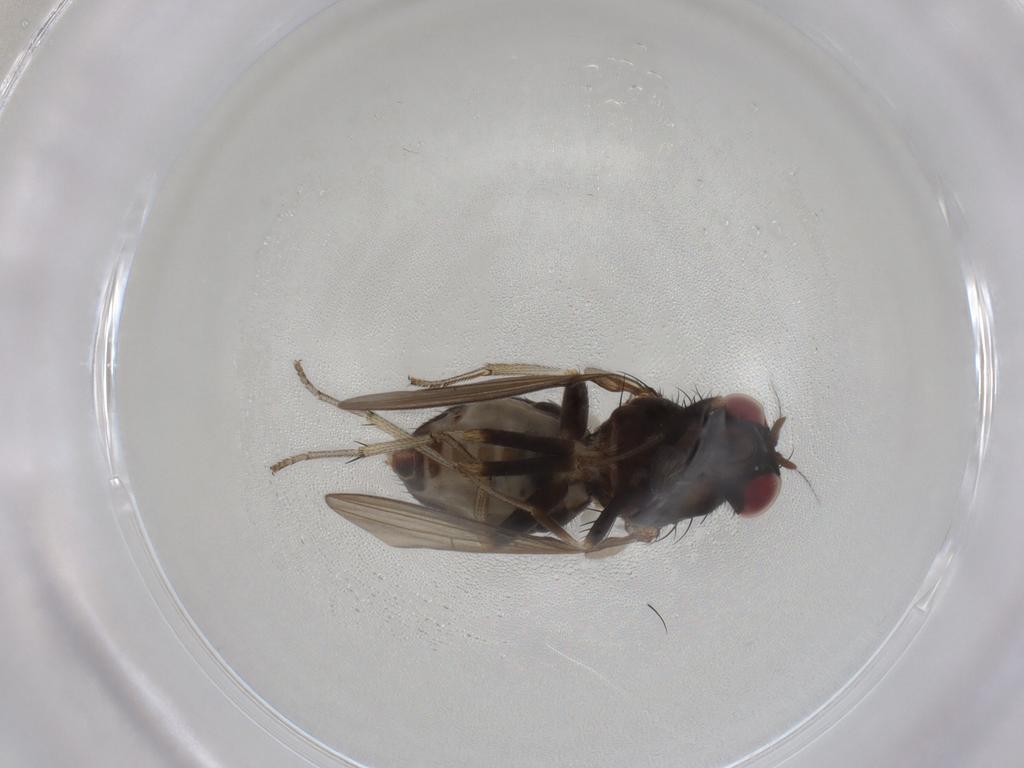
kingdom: Animalia
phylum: Arthropoda
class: Insecta
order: Diptera
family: Lauxaniidae
